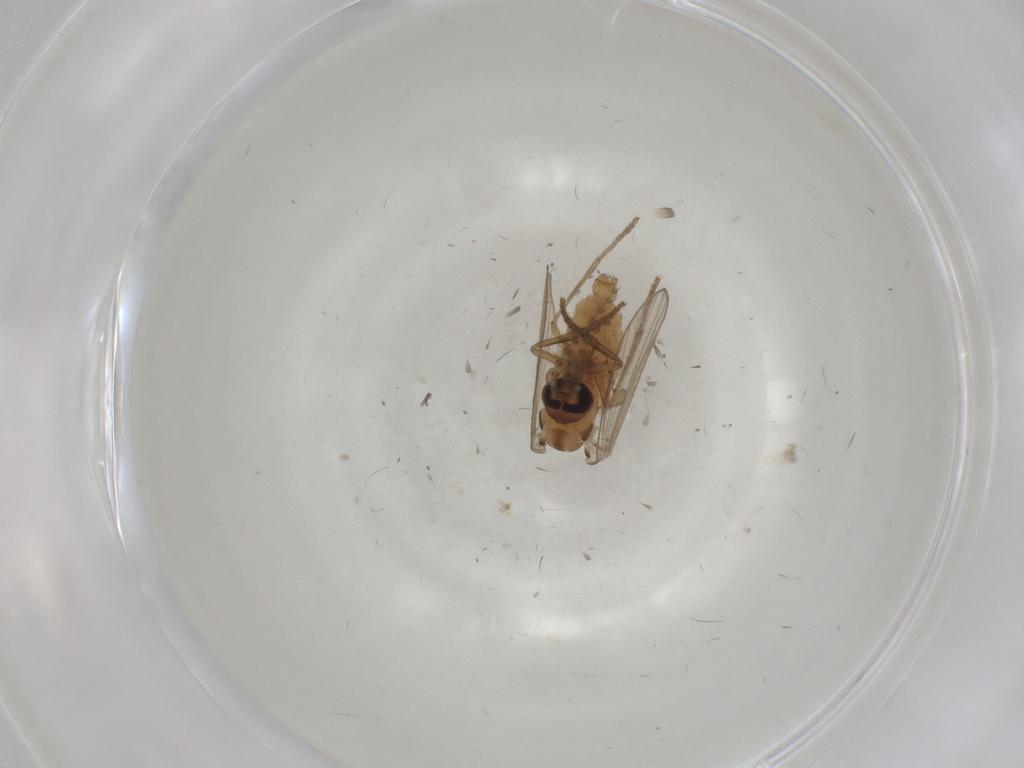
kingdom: Animalia
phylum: Arthropoda
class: Insecta
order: Diptera
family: Psychodidae
